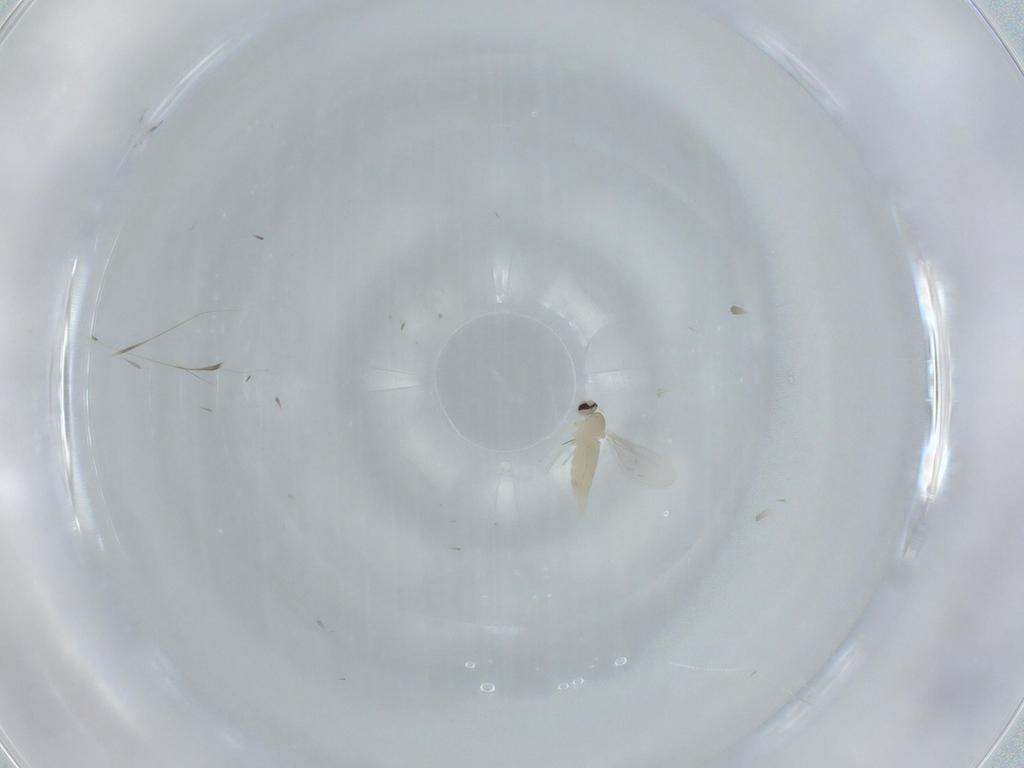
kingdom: Animalia
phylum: Arthropoda
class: Insecta
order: Diptera
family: Cecidomyiidae
